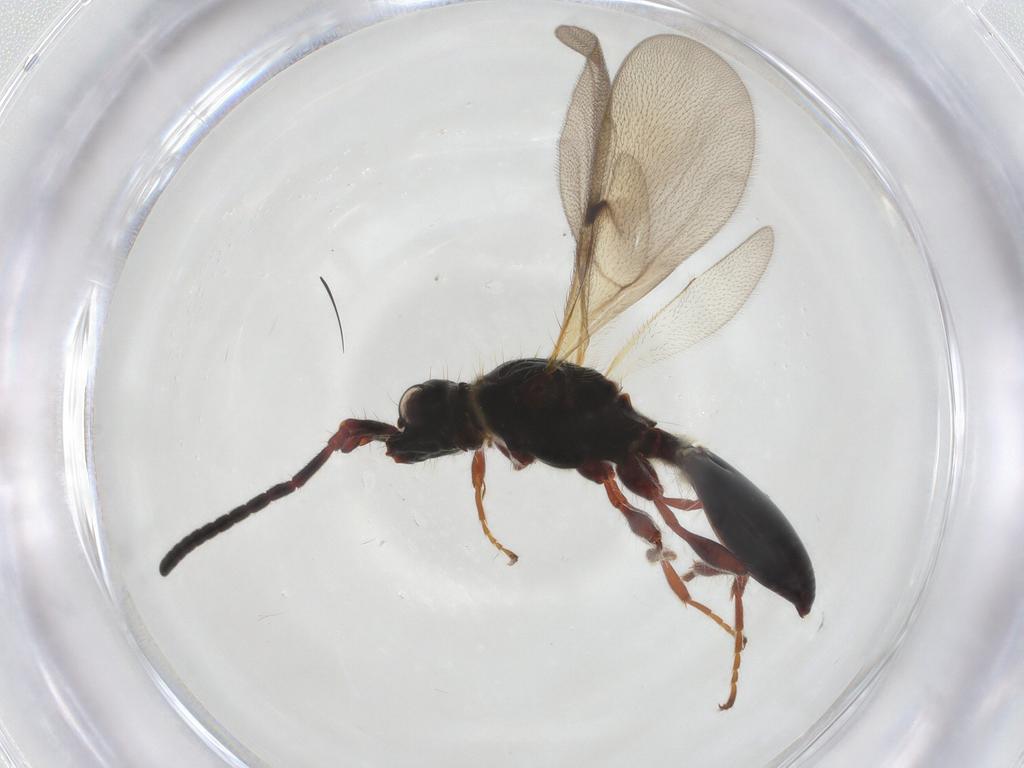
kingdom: Animalia
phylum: Arthropoda
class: Insecta
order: Hymenoptera
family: Diapriidae
